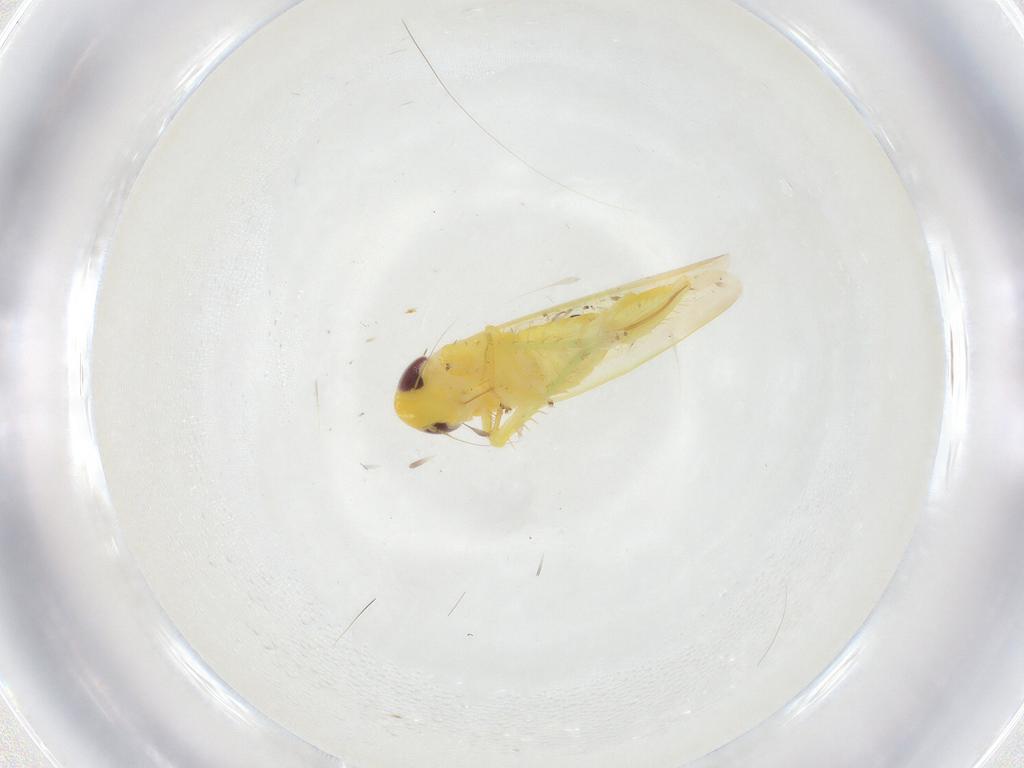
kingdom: Animalia
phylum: Arthropoda
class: Insecta
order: Hemiptera
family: Cicadellidae
